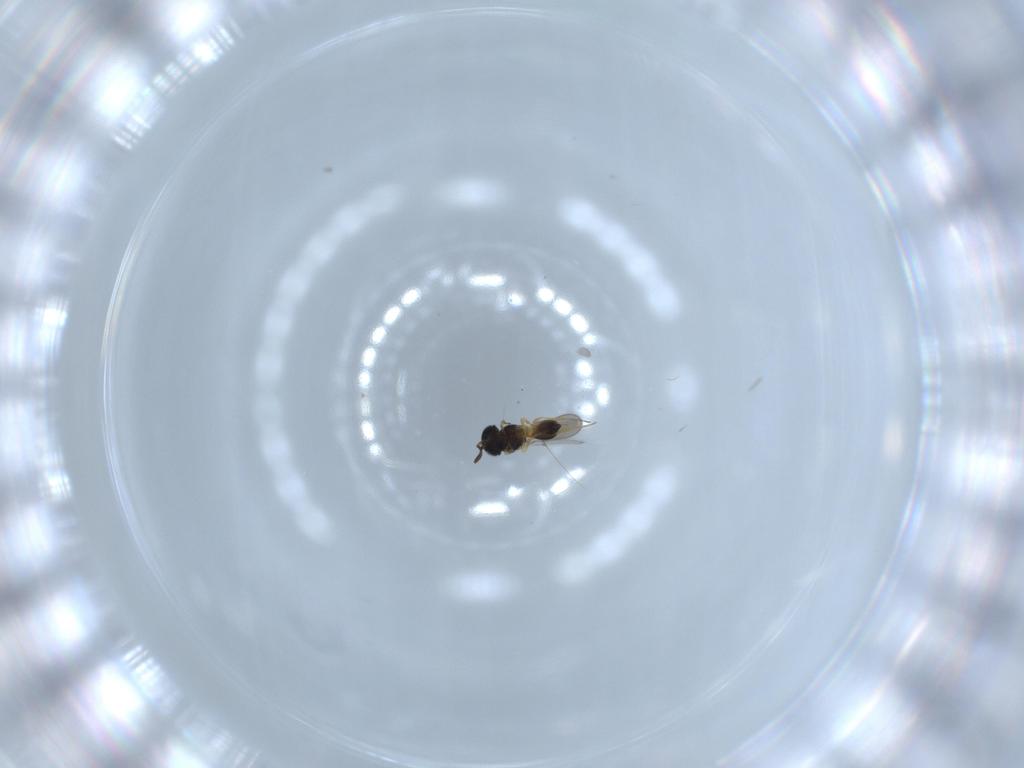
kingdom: Animalia
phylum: Arthropoda
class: Insecta
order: Hymenoptera
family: Scelionidae
